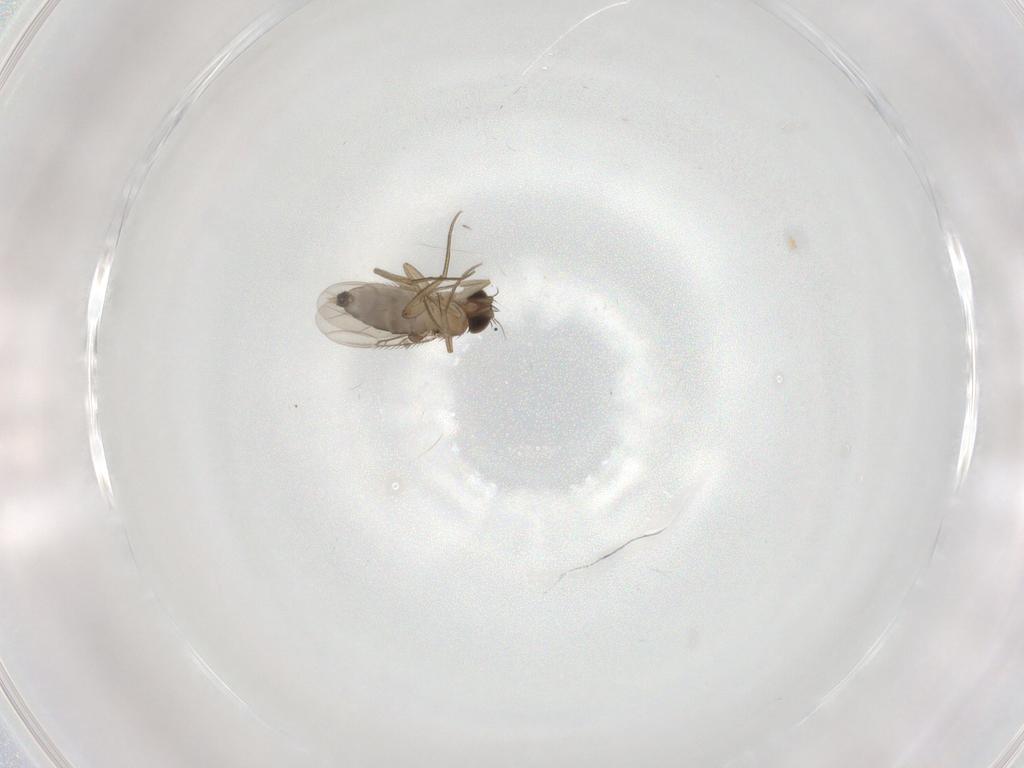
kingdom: Animalia
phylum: Arthropoda
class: Insecta
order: Diptera
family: Phoridae
